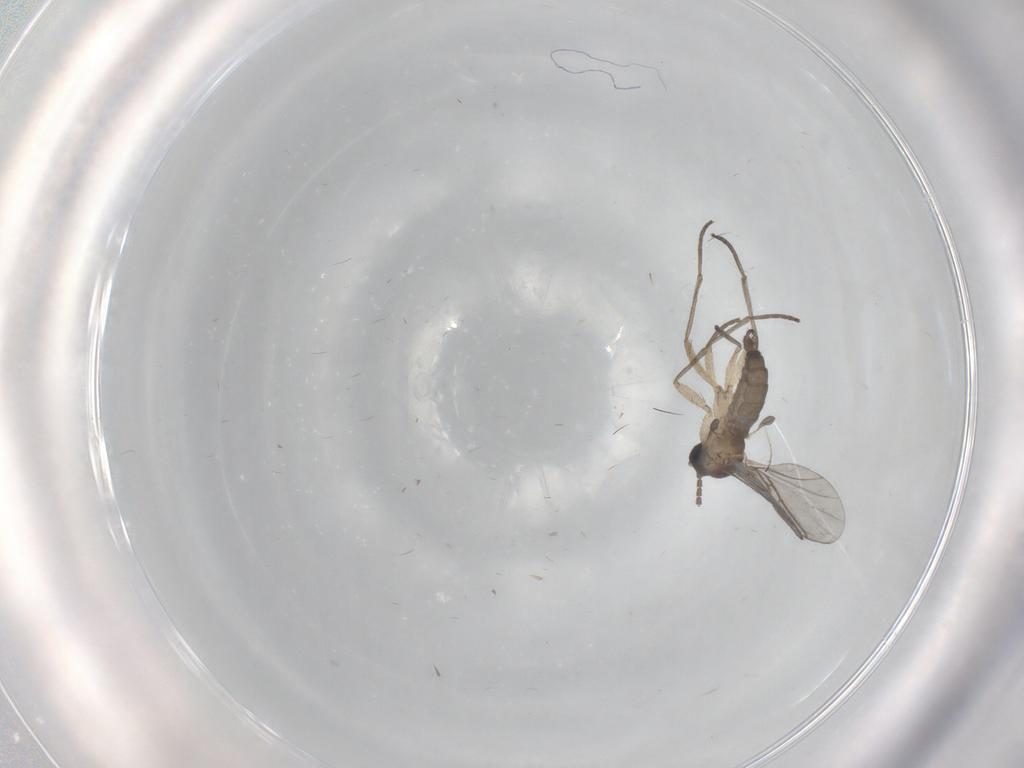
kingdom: Animalia
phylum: Arthropoda
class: Insecta
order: Diptera
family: Sciaridae
